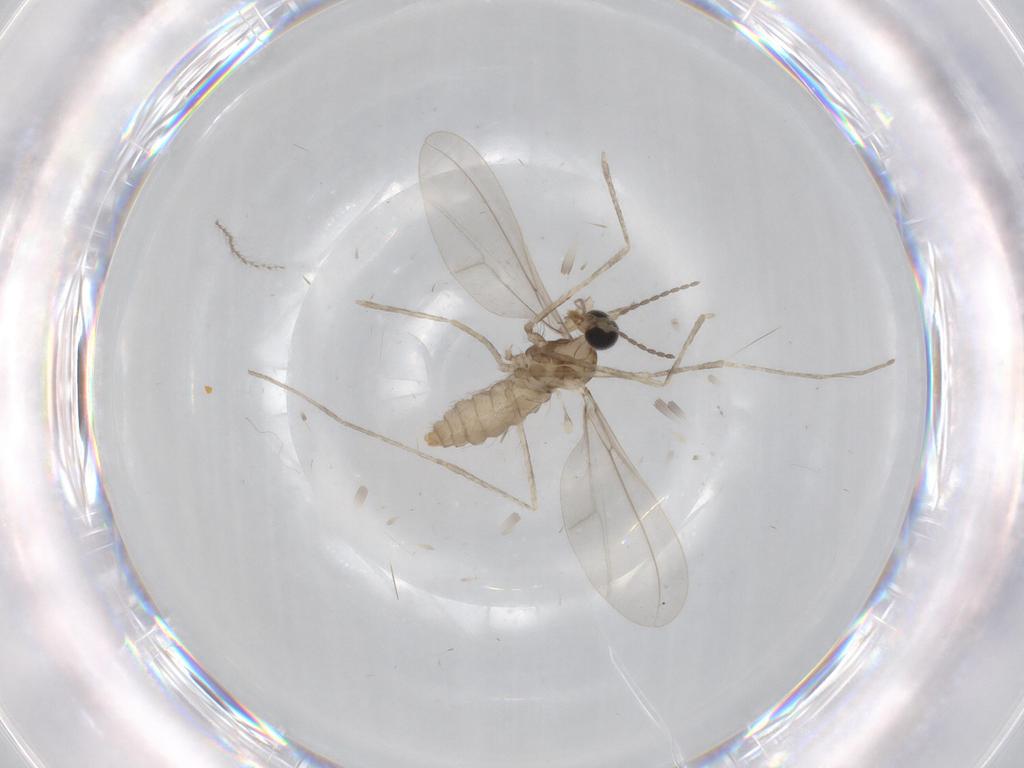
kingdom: Animalia
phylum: Arthropoda
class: Insecta
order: Diptera
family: Phoridae
